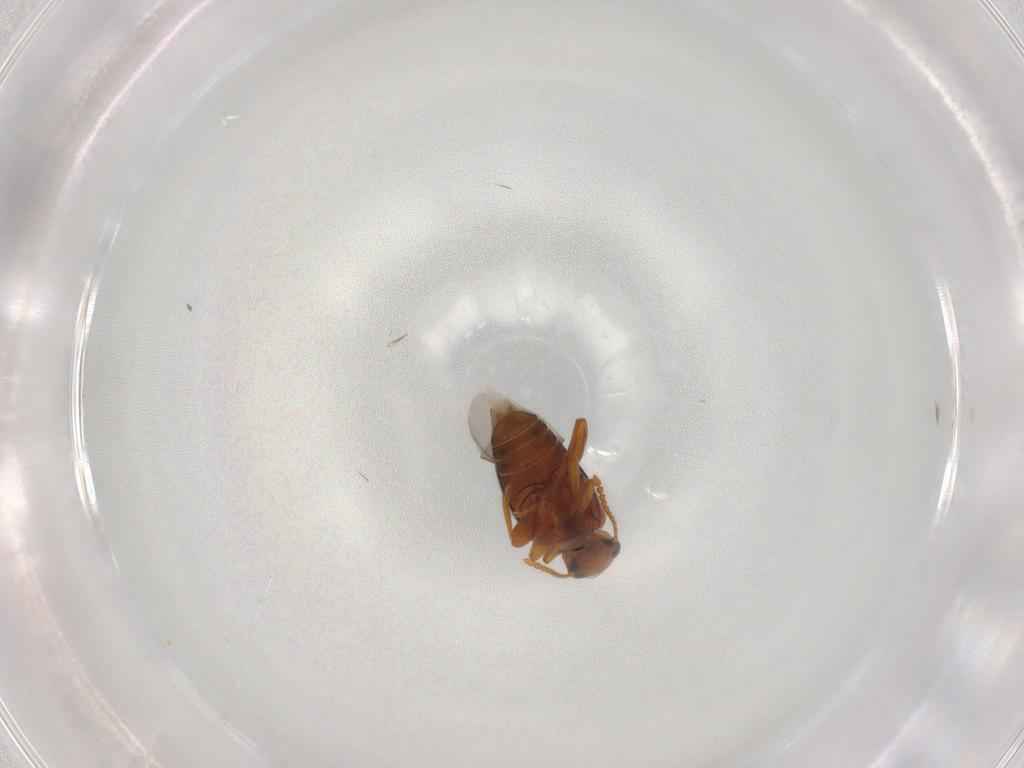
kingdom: Animalia
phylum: Arthropoda
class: Insecta
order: Coleoptera
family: Aderidae
